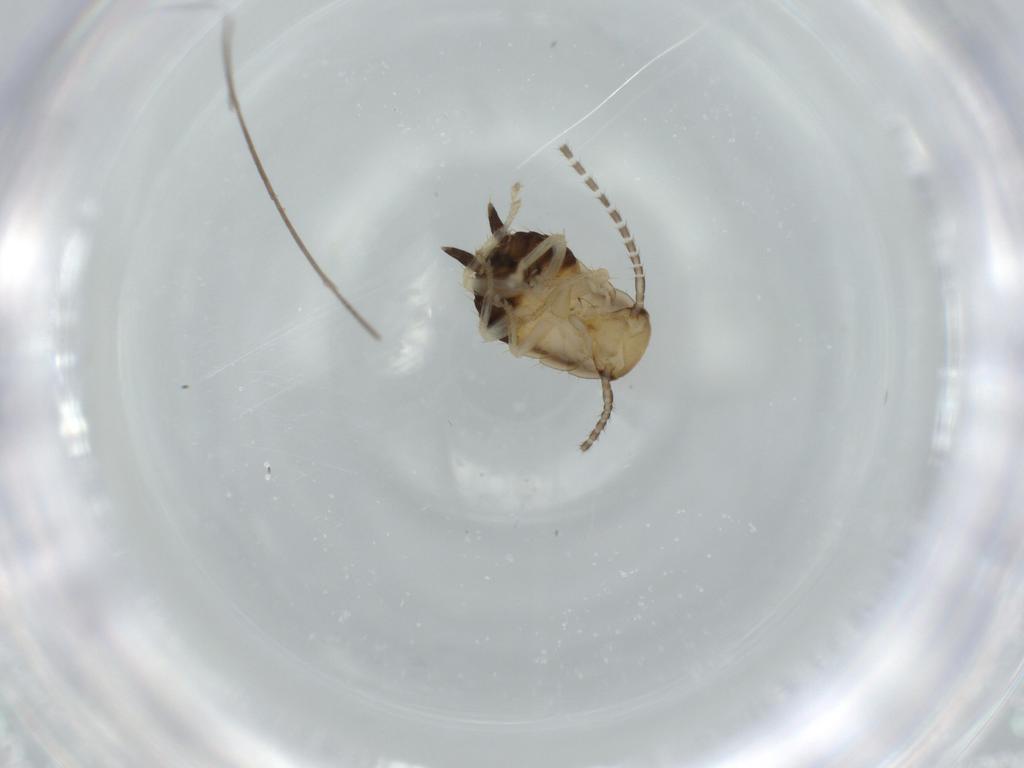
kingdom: Animalia
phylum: Arthropoda
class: Insecta
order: Blattodea
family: Ectobiidae
